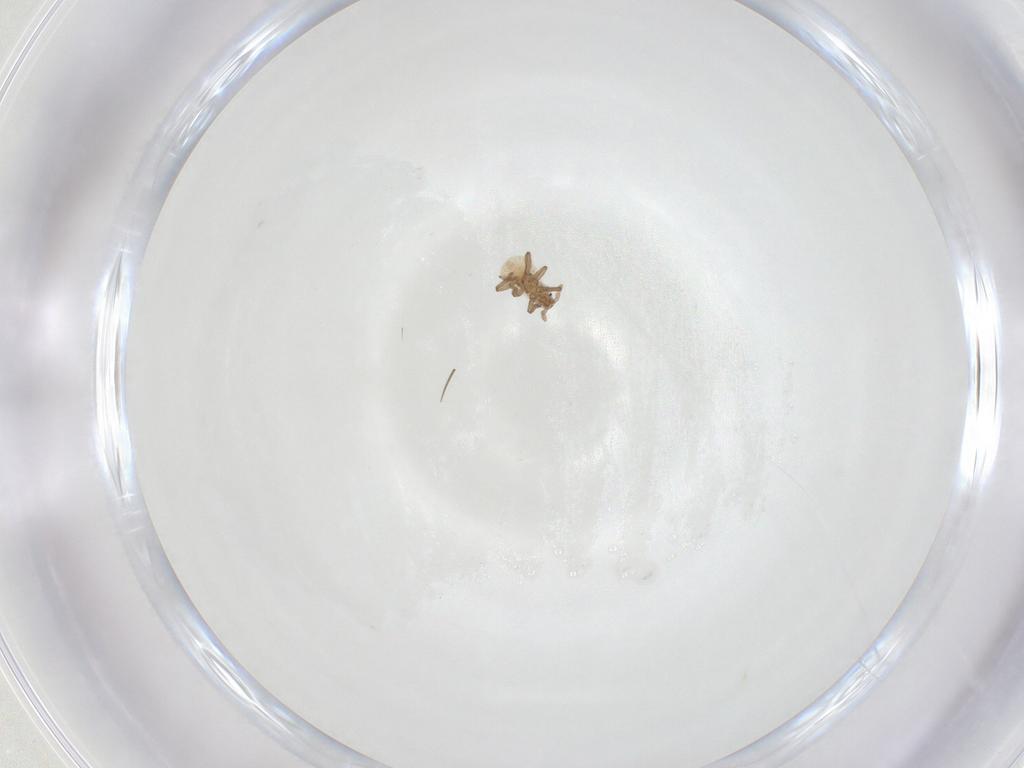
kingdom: Animalia
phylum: Arthropoda
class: Insecta
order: Hemiptera
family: Aphididae
